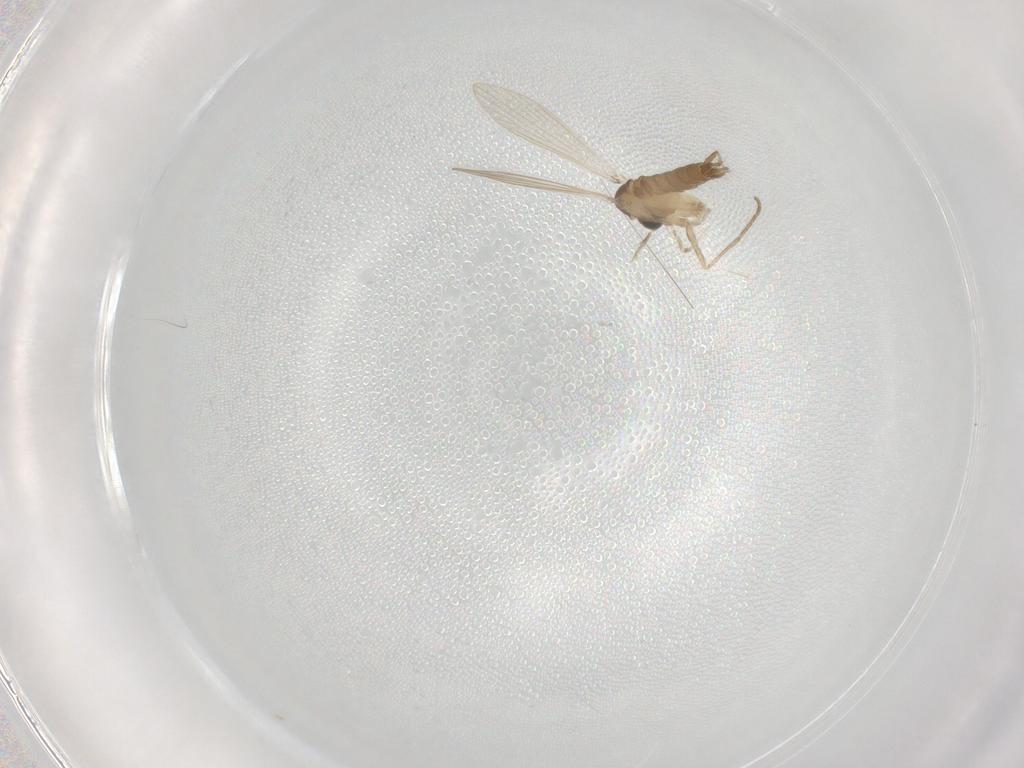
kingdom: Animalia
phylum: Arthropoda
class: Insecta
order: Diptera
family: Psychodidae
